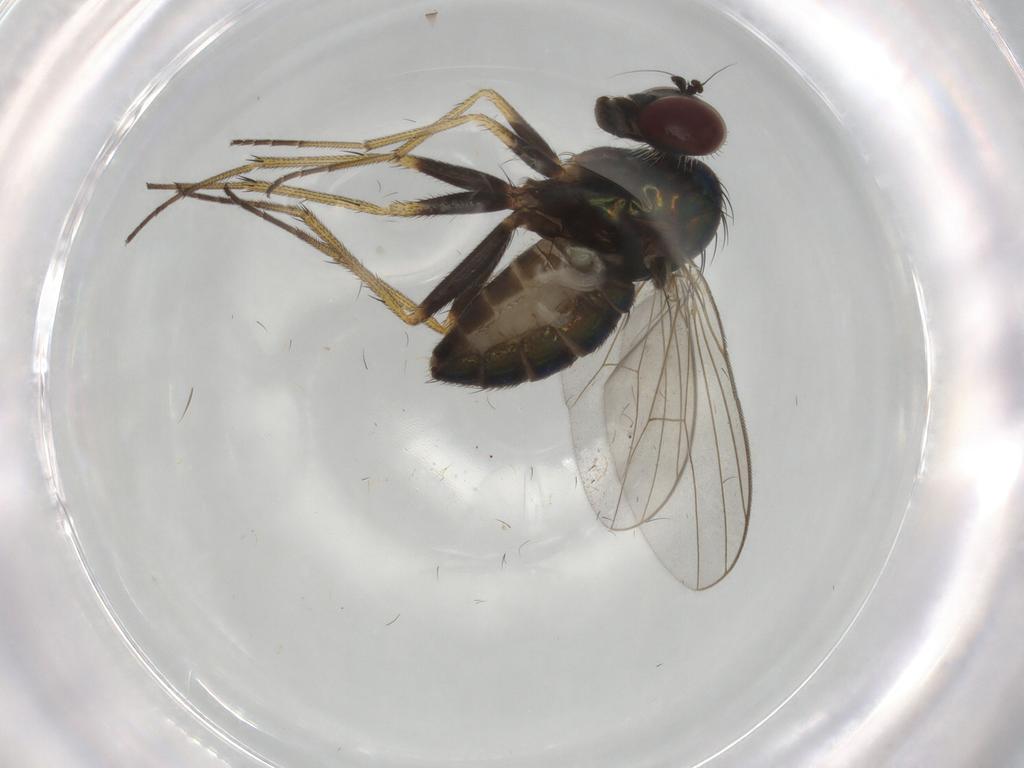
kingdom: Animalia
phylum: Arthropoda
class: Insecta
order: Diptera
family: Dolichopodidae
